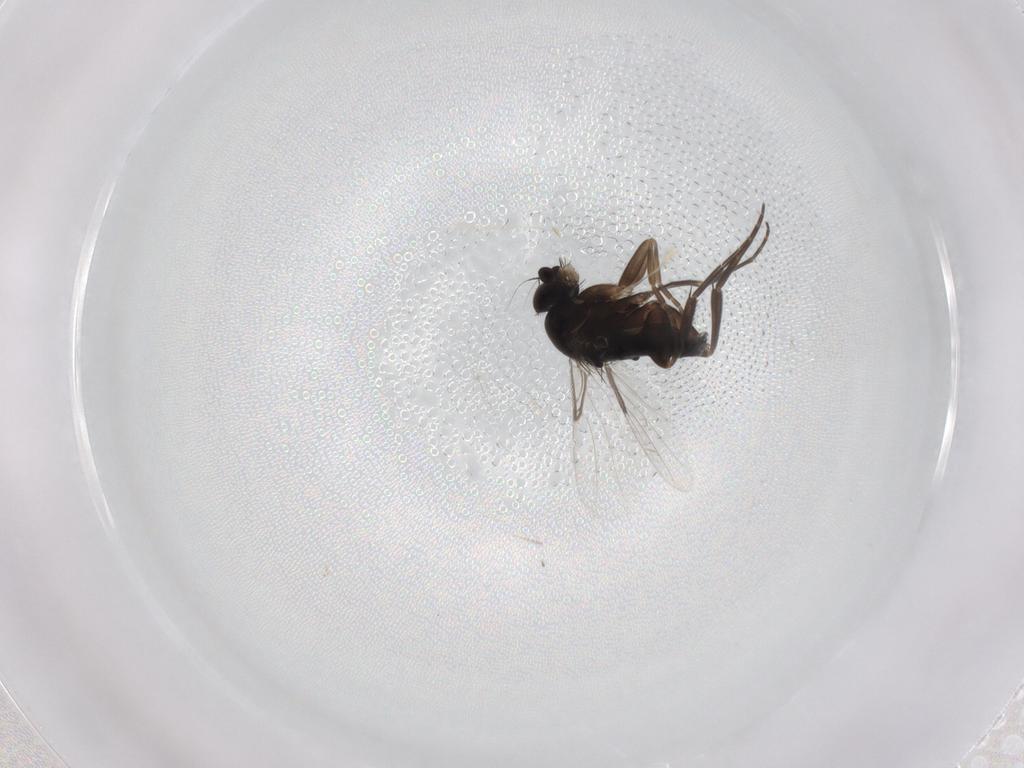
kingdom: Animalia
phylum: Arthropoda
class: Insecta
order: Diptera
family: Phoridae
